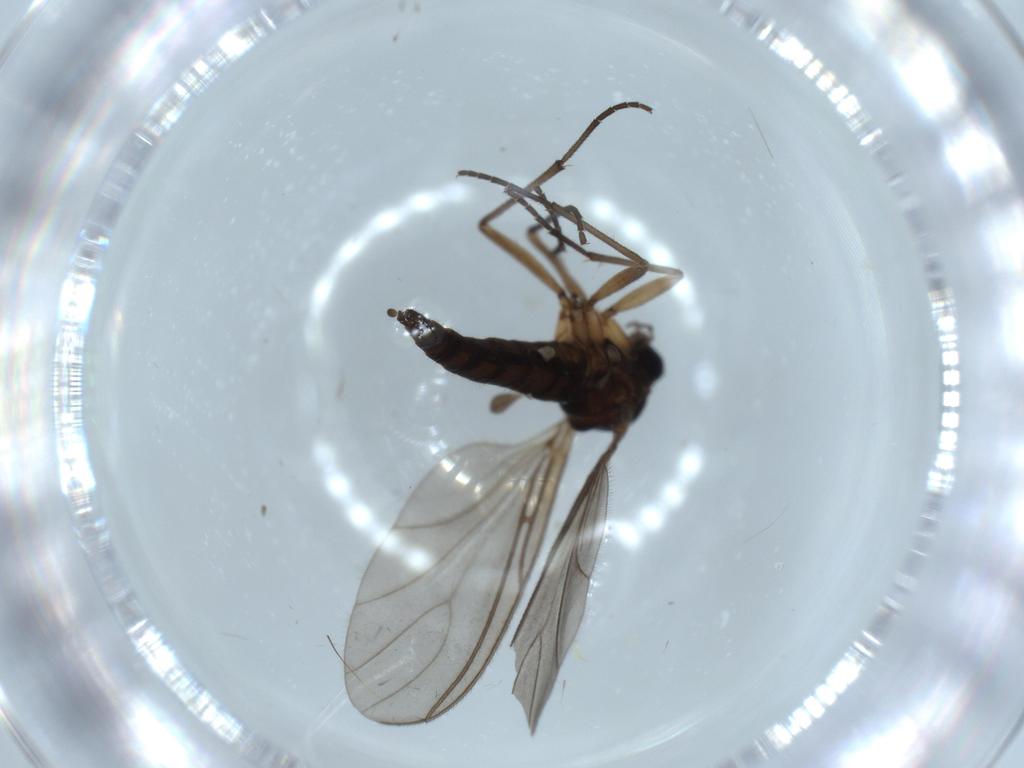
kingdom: Animalia
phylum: Arthropoda
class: Insecta
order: Diptera
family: Sciaridae
